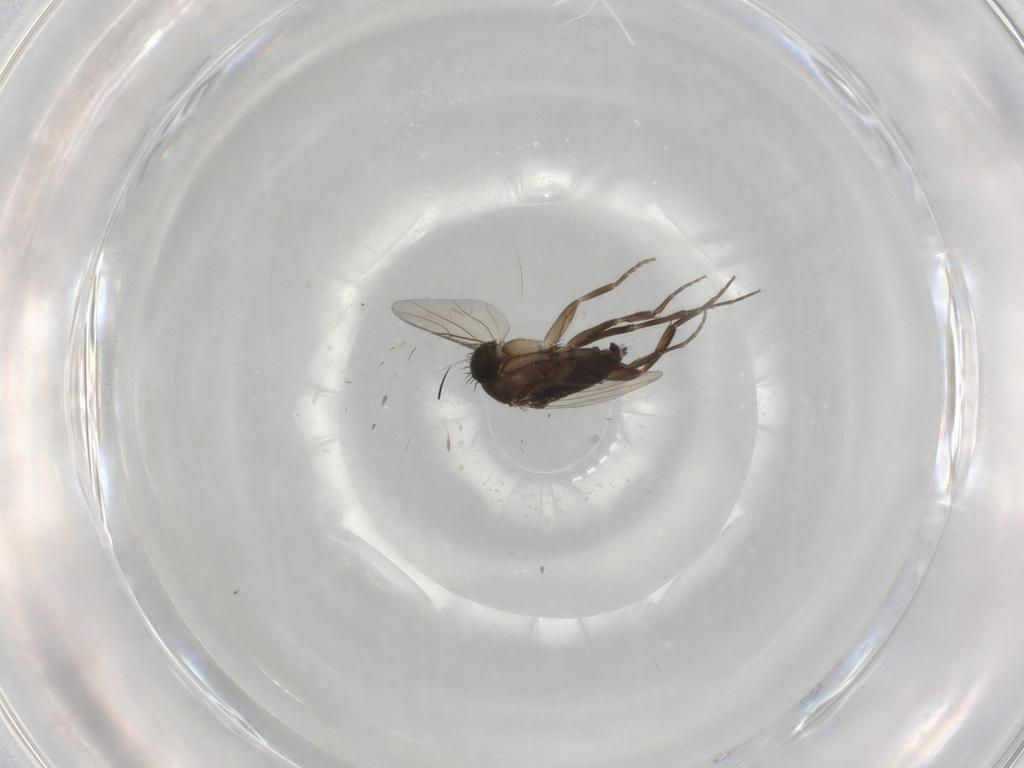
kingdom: Animalia
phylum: Arthropoda
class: Insecta
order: Diptera
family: Phoridae
